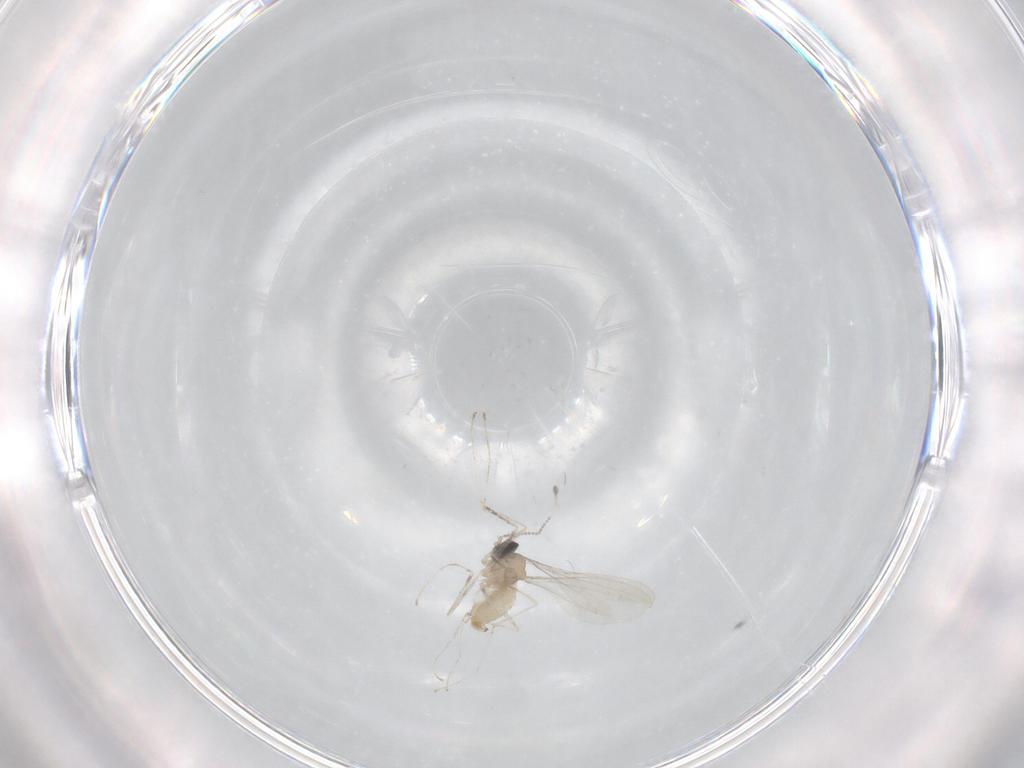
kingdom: Animalia
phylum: Arthropoda
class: Insecta
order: Diptera
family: Cecidomyiidae
